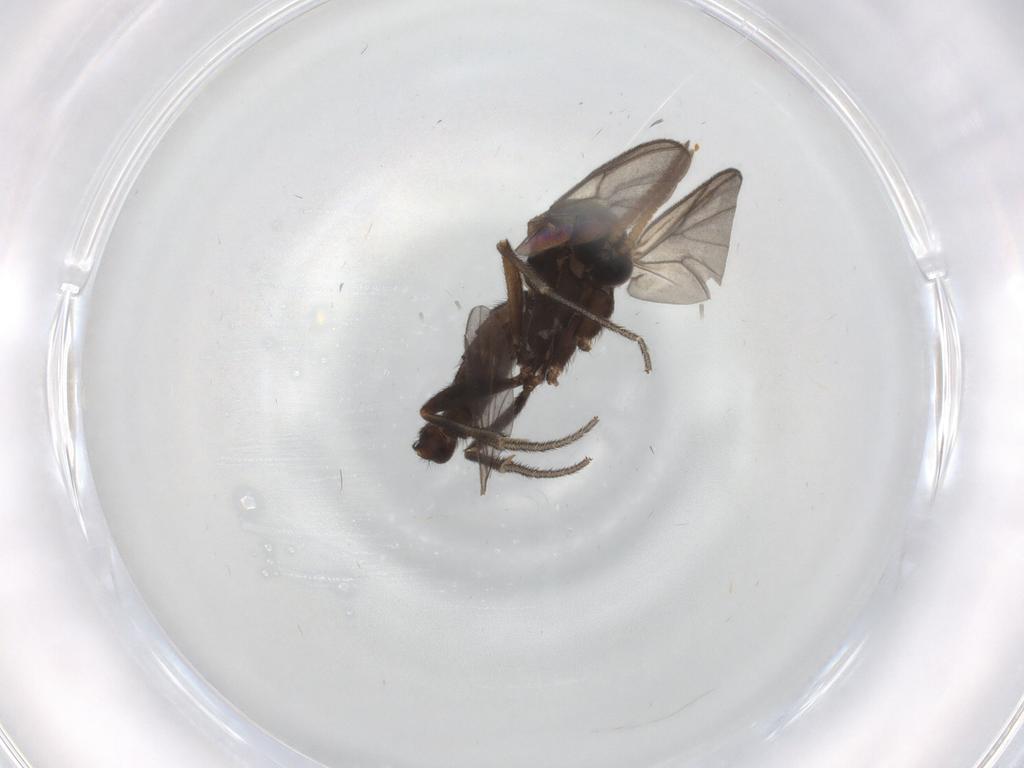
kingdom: Animalia
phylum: Arthropoda
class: Insecta
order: Diptera
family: Mycetophilidae
